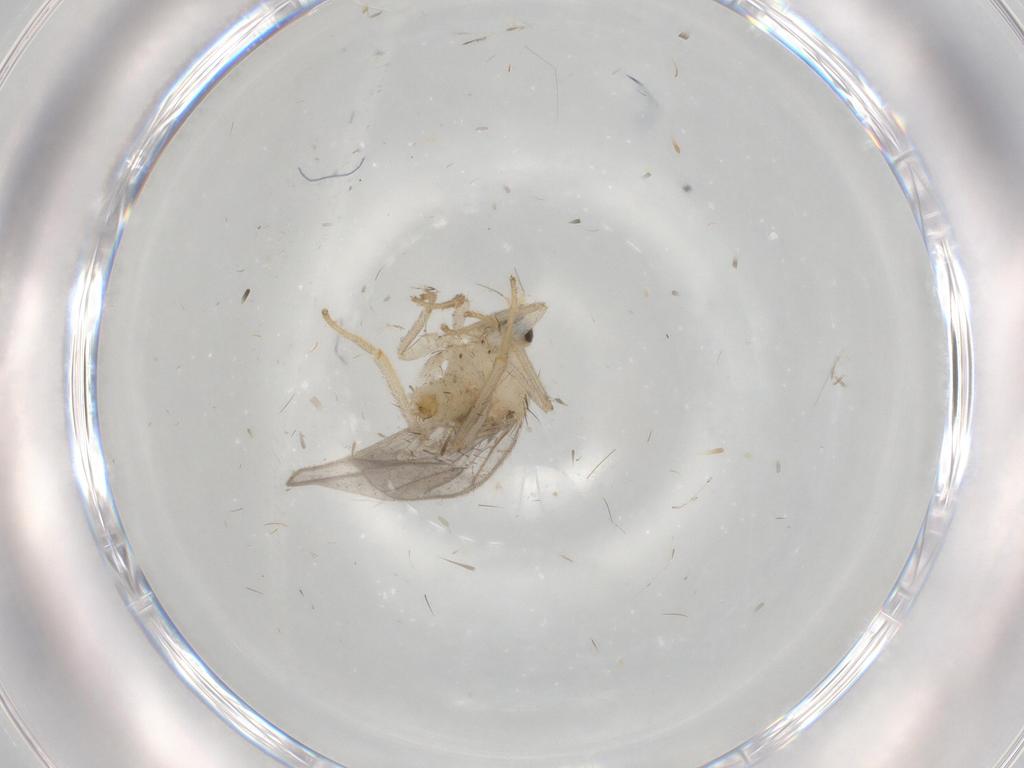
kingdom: Animalia
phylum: Arthropoda
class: Insecta
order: Diptera
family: Hybotidae
